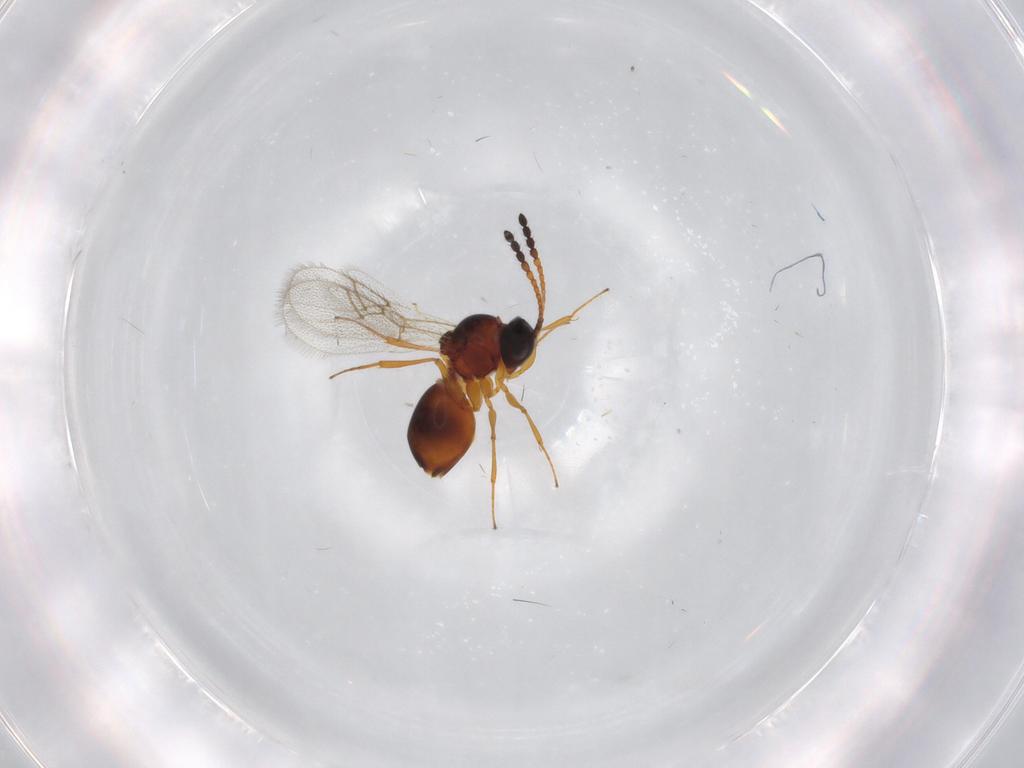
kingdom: Animalia
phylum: Arthropoda
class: Insecta
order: Hymenoptera
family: Figitidae
